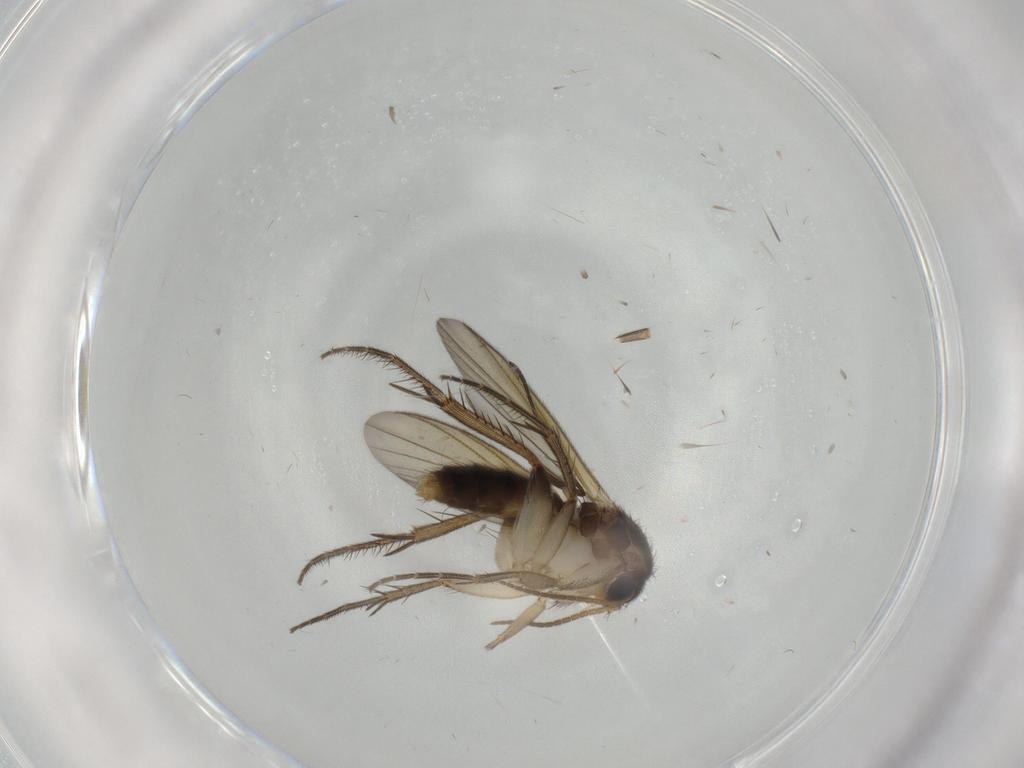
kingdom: Animalia
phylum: Arthropoda
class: Insecta
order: Diptera
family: Mycetophilidae
